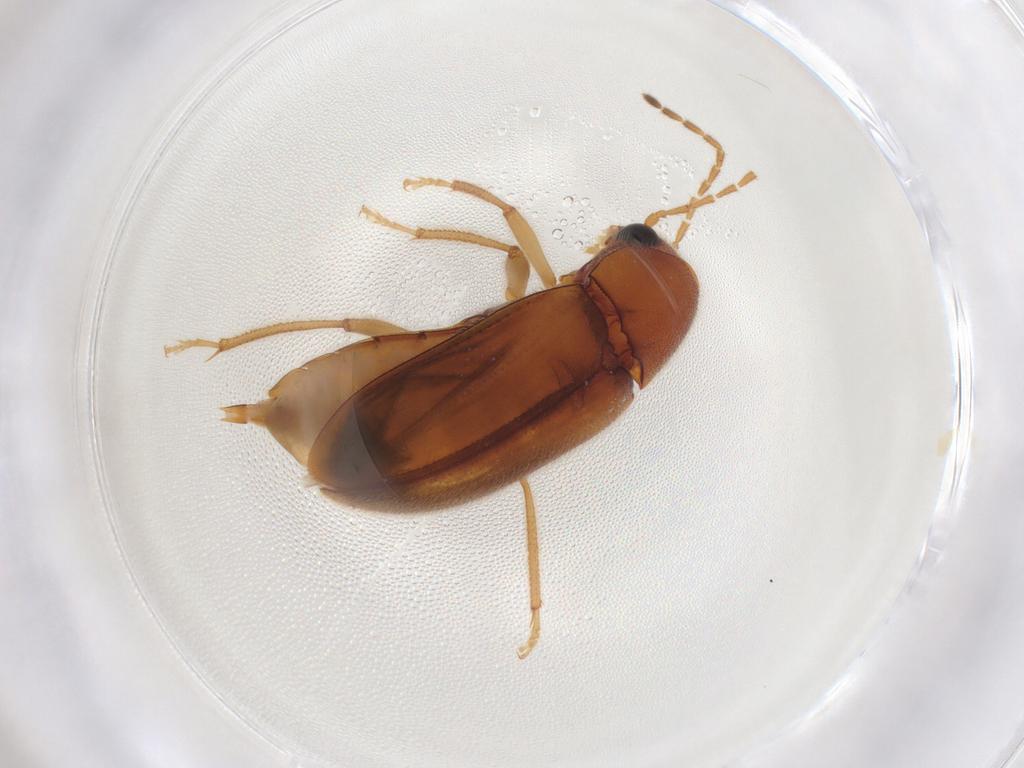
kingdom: Animalia
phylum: Arthropoda
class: Insecta
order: Coleoptera
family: Ptilodactylidae
